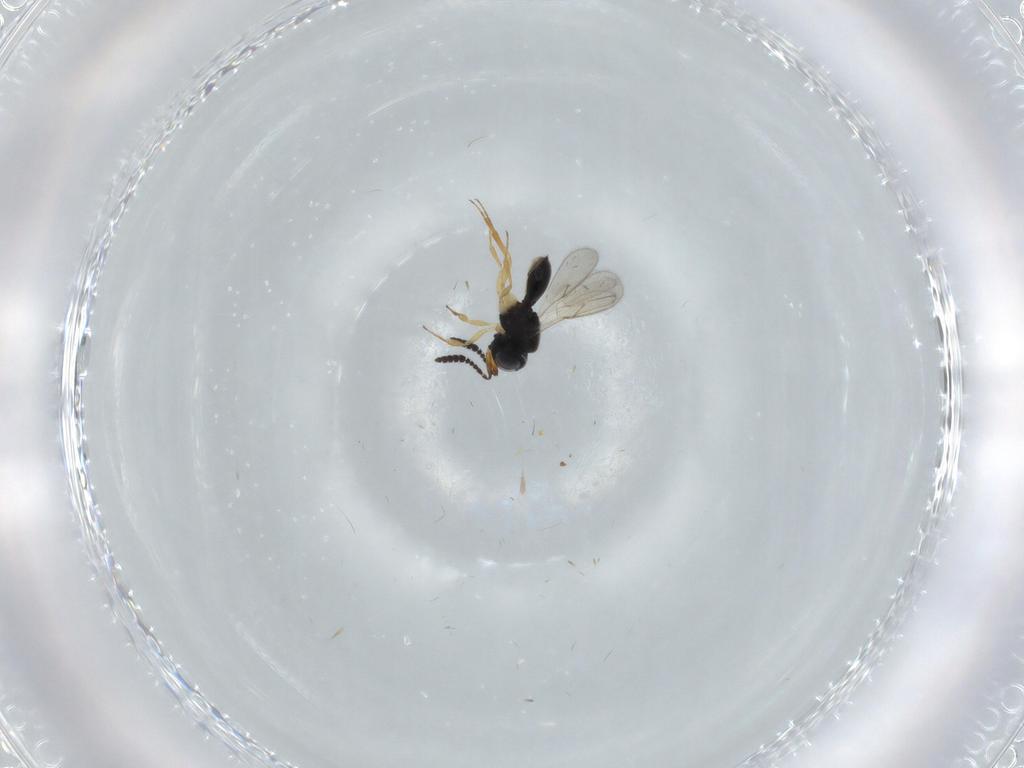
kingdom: Animalia
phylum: Arthropoda
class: Insecta
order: Hymenoptera
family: Scelionidae
